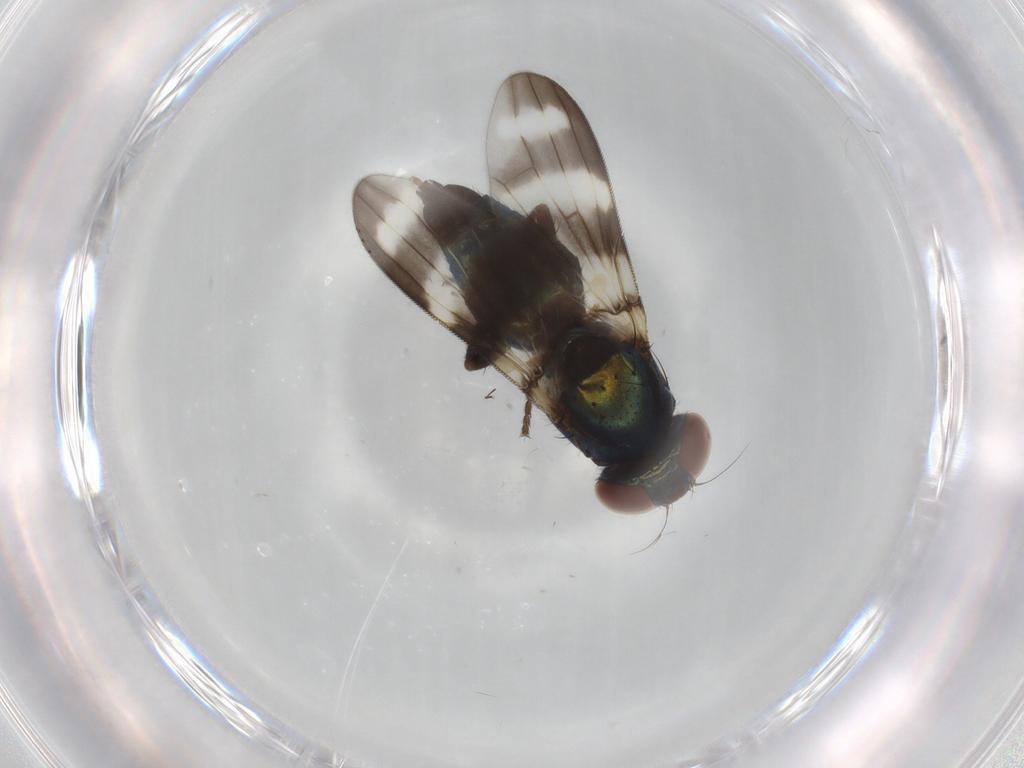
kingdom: Animalia
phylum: Arthropoda
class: Insecta
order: Diptera
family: Ulidiidae
